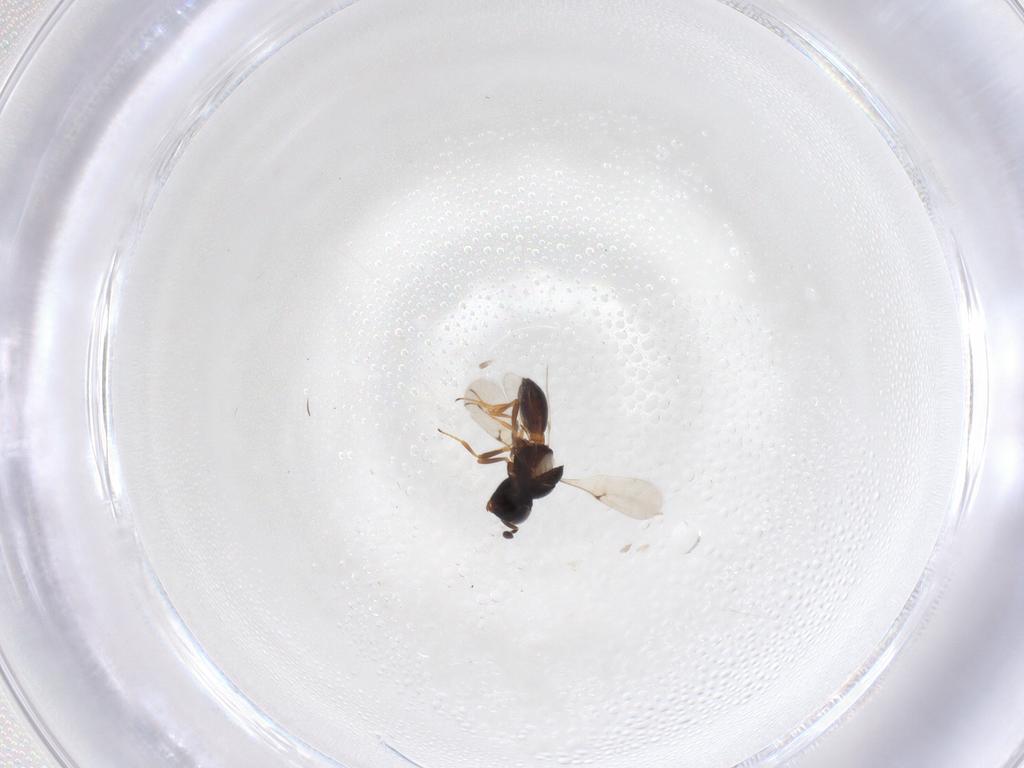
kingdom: Animalia
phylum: Arthropoda
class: Arachnida
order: Araneae
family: Pholcidae
